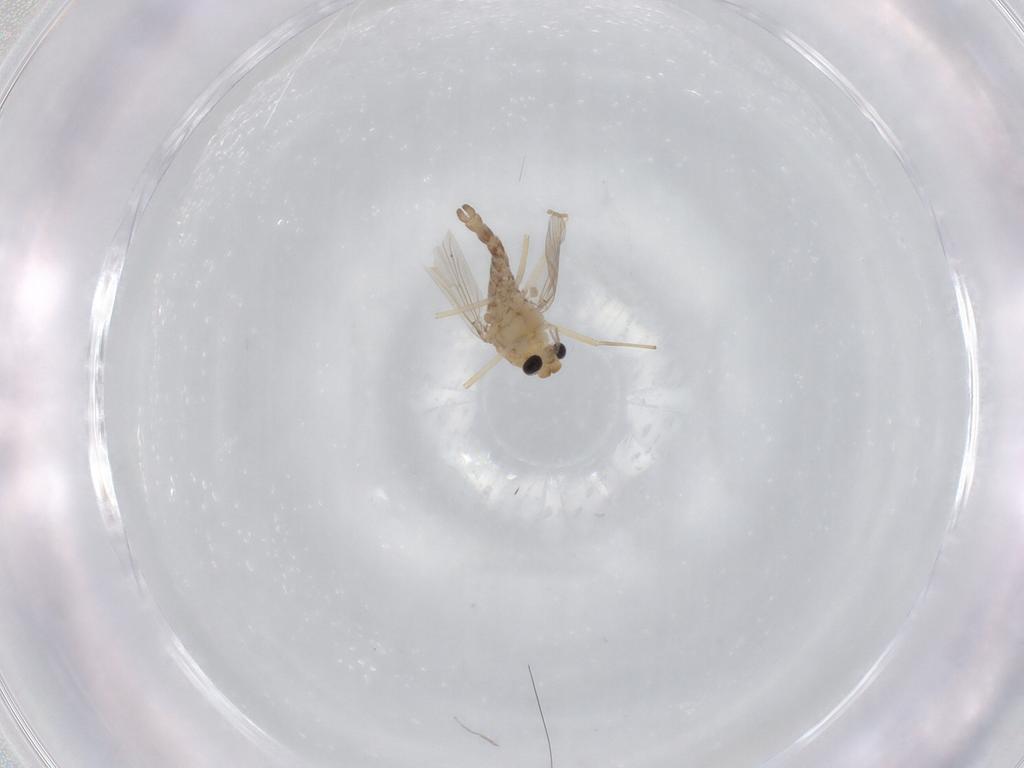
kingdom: Animalia
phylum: Arthropoda
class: Insecta
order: Diptera
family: Chironomidae
